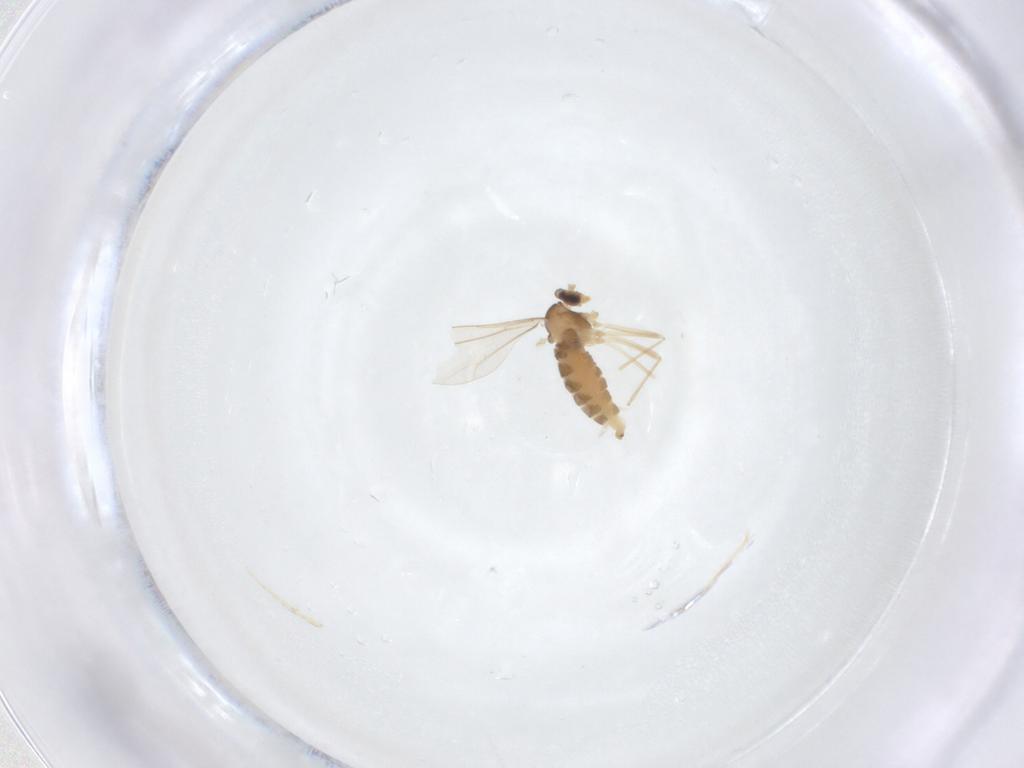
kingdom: Animalia
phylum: Arthropoda
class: Insecta
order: Diptera
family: Cecidomyiidae
